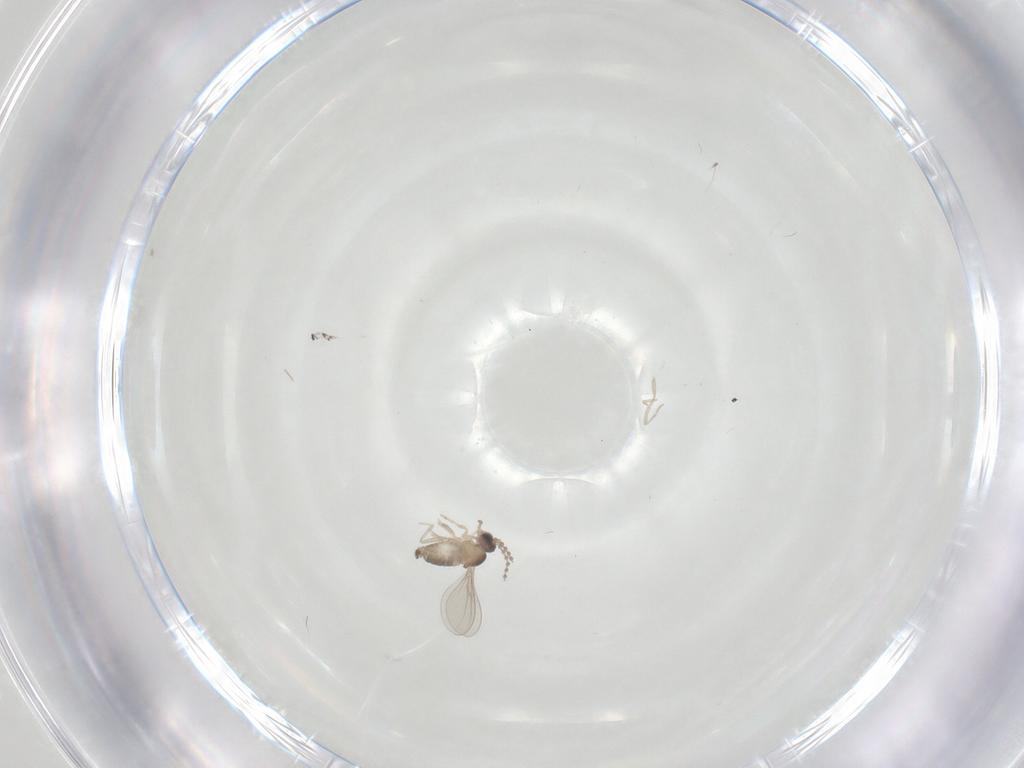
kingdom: Animalia
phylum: Arthropoda
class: Insecta
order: Diptera
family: Cecidomyiidae
